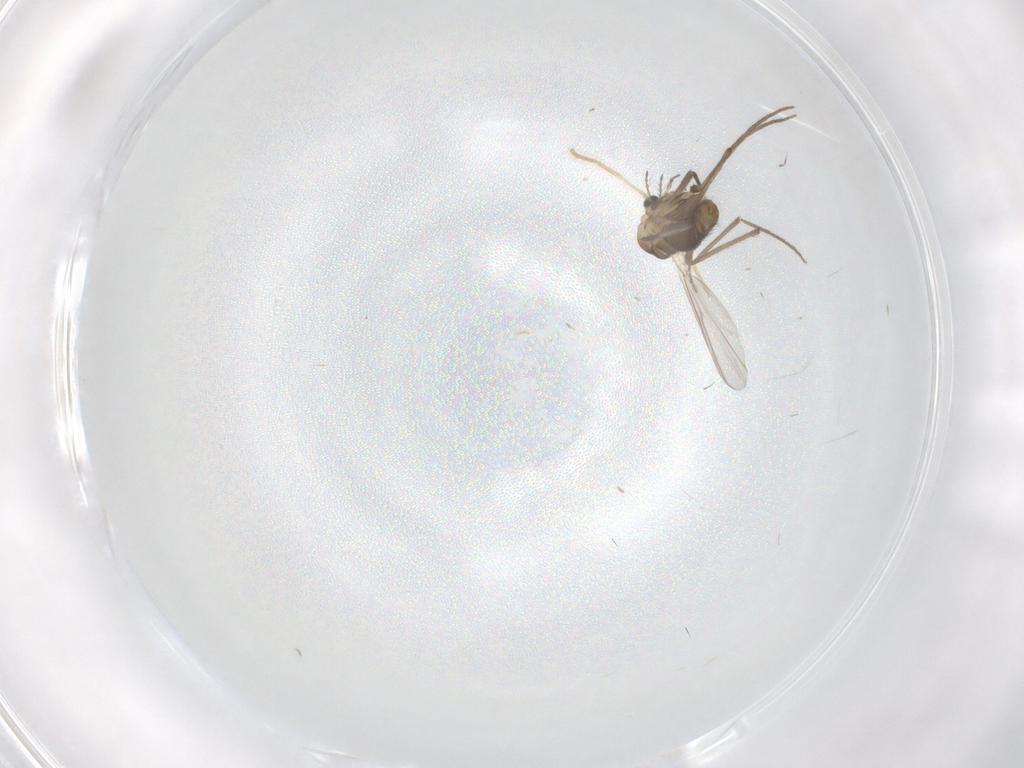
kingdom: Animalia
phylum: Arthropoda
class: Insecta
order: Diptera
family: Chironomidae
